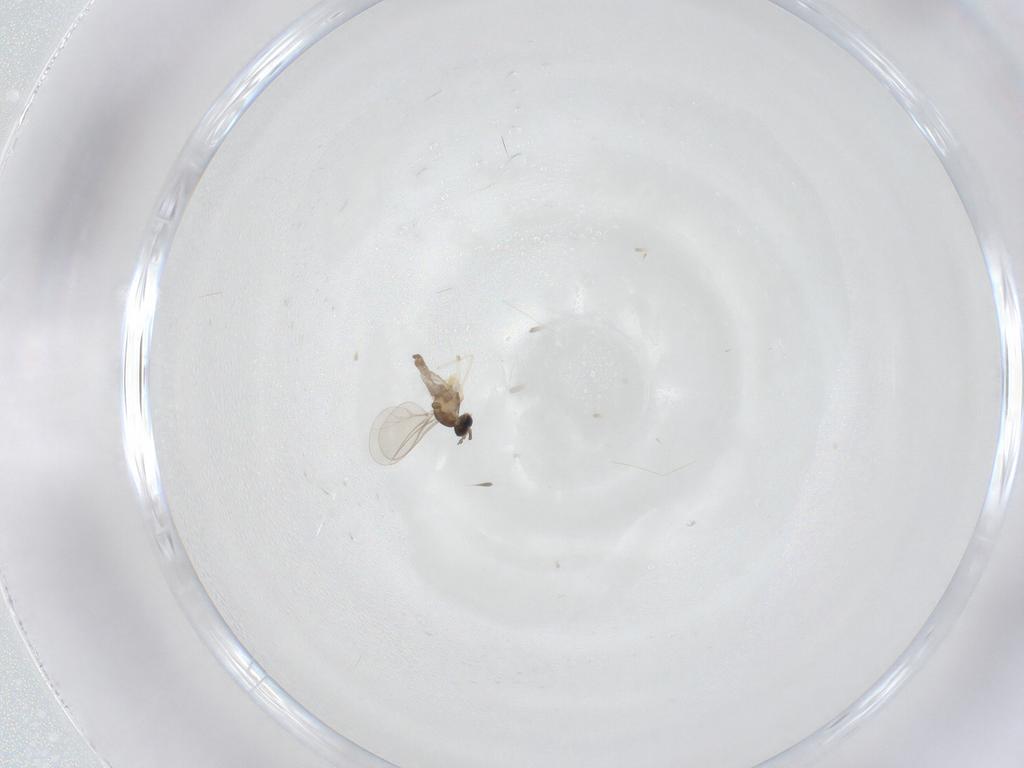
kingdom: Animalia
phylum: Arthropoda
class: Insecta
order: Diptera
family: Cecidomyiidae
